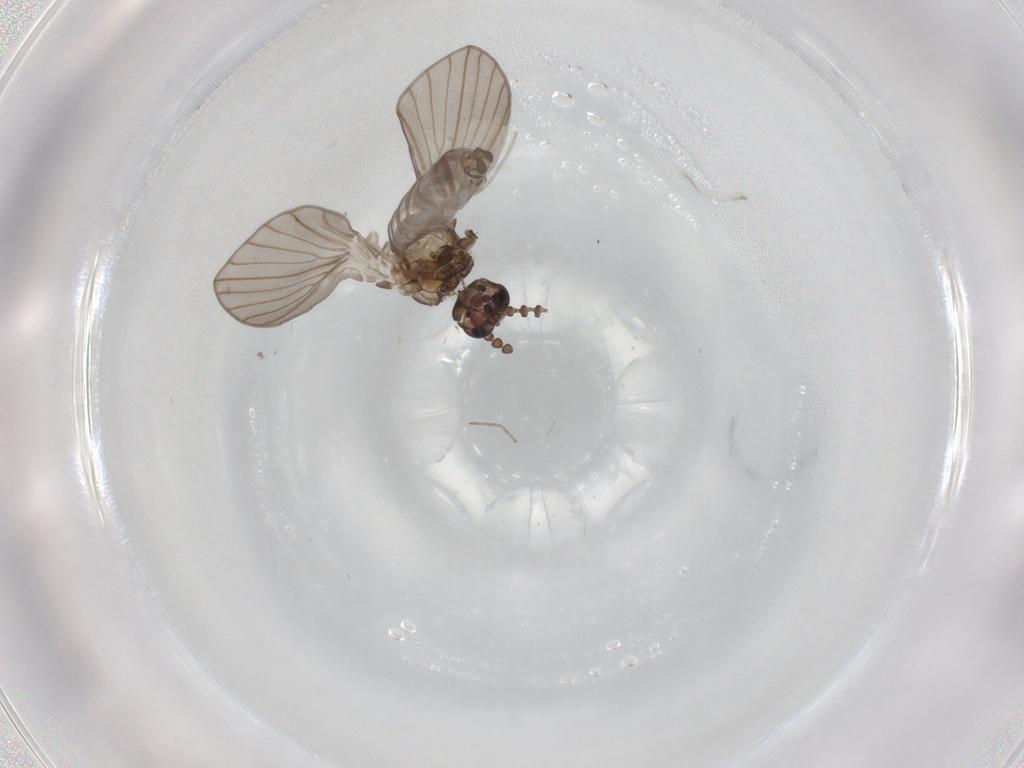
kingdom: Animalia
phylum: Arthropoda
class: Insecta
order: Diptera
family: Psychodidae
